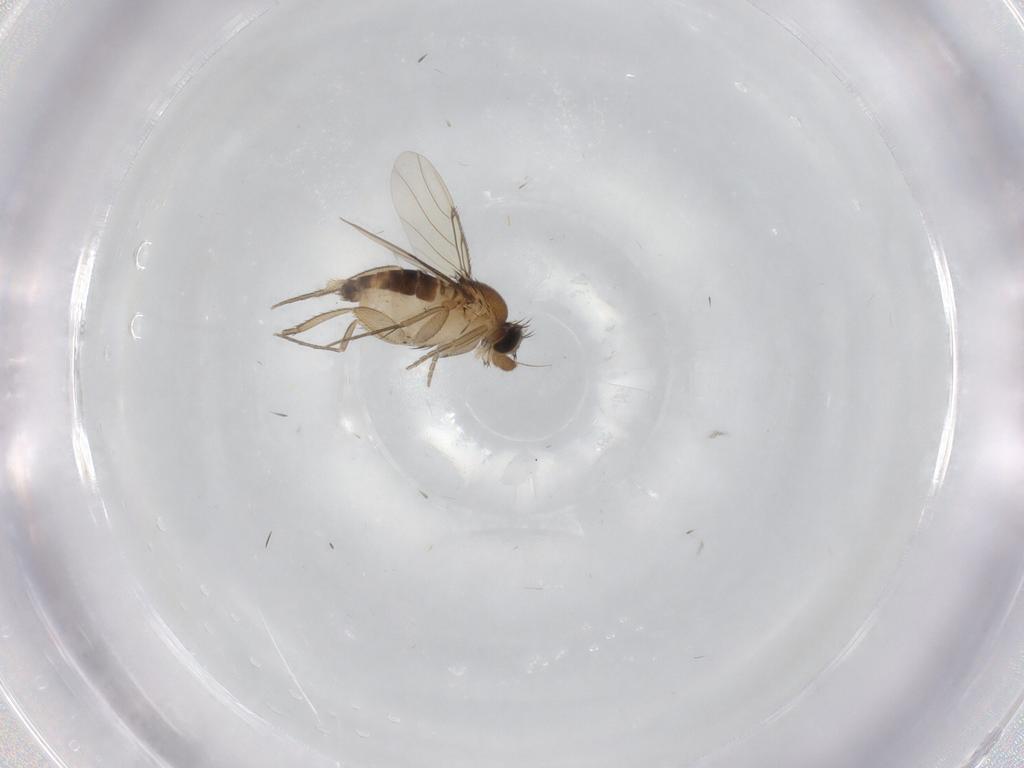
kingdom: Animalia
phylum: Arthropoda
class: Insecta
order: Diptera
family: Phoridae
